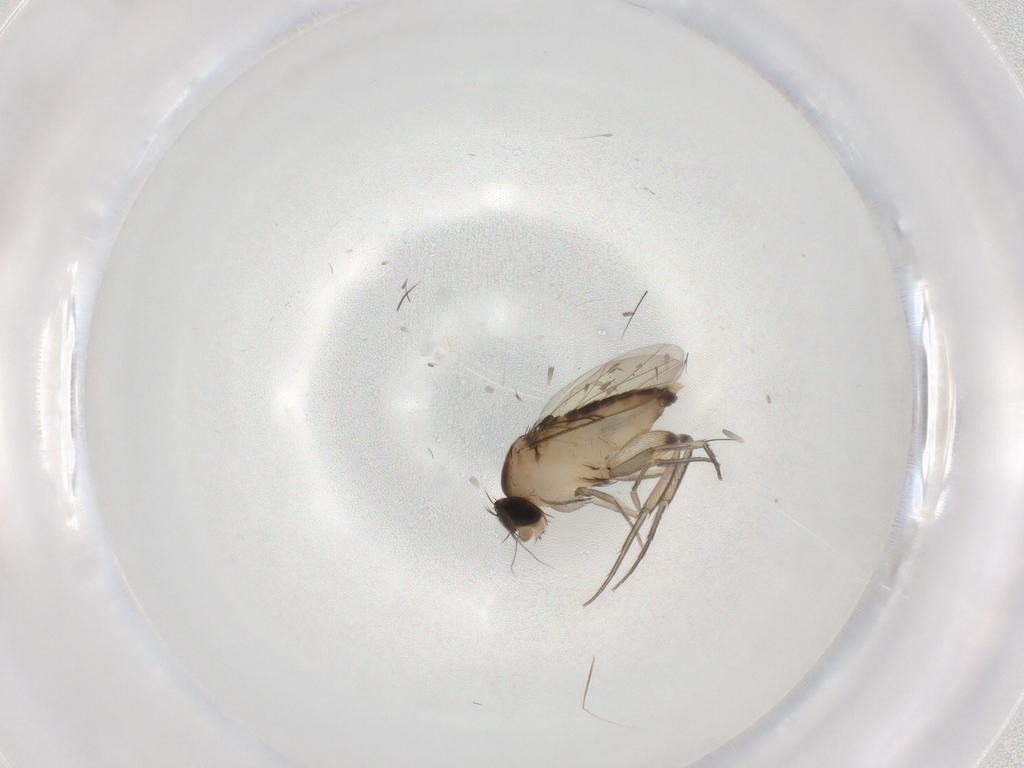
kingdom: Animalia
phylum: Arthropoda
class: Insecta
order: Diptera
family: Phoridae
